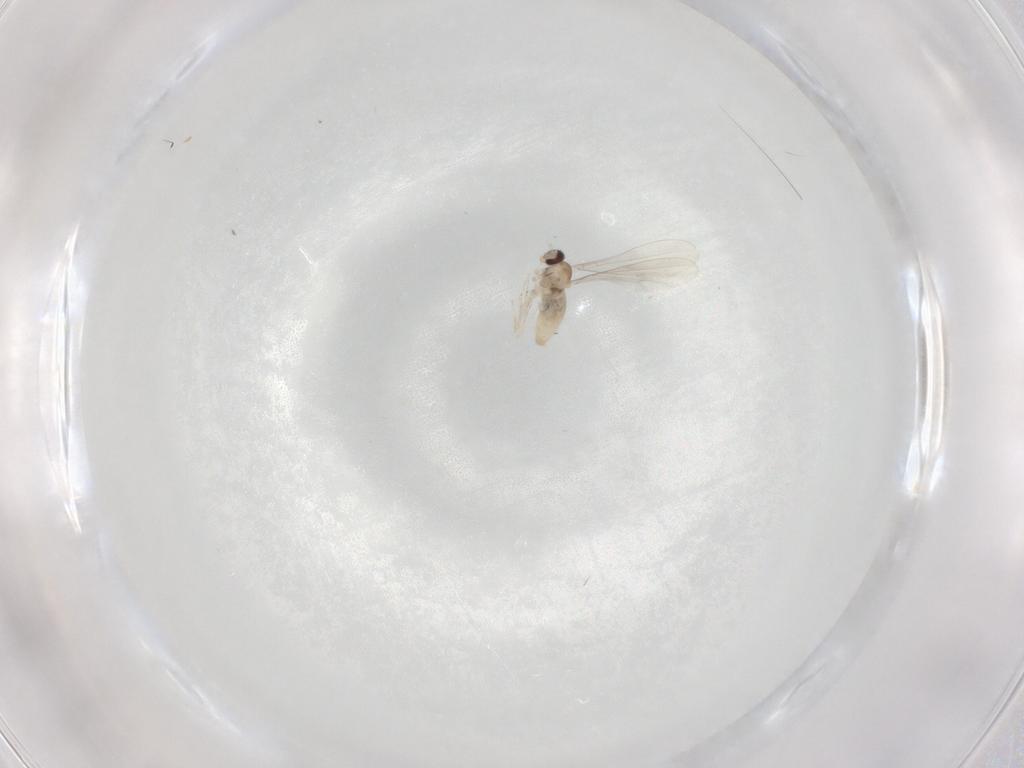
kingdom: Animalia
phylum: Arthropoda
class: Insecta
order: Diptera
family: Cecidomyiidae
